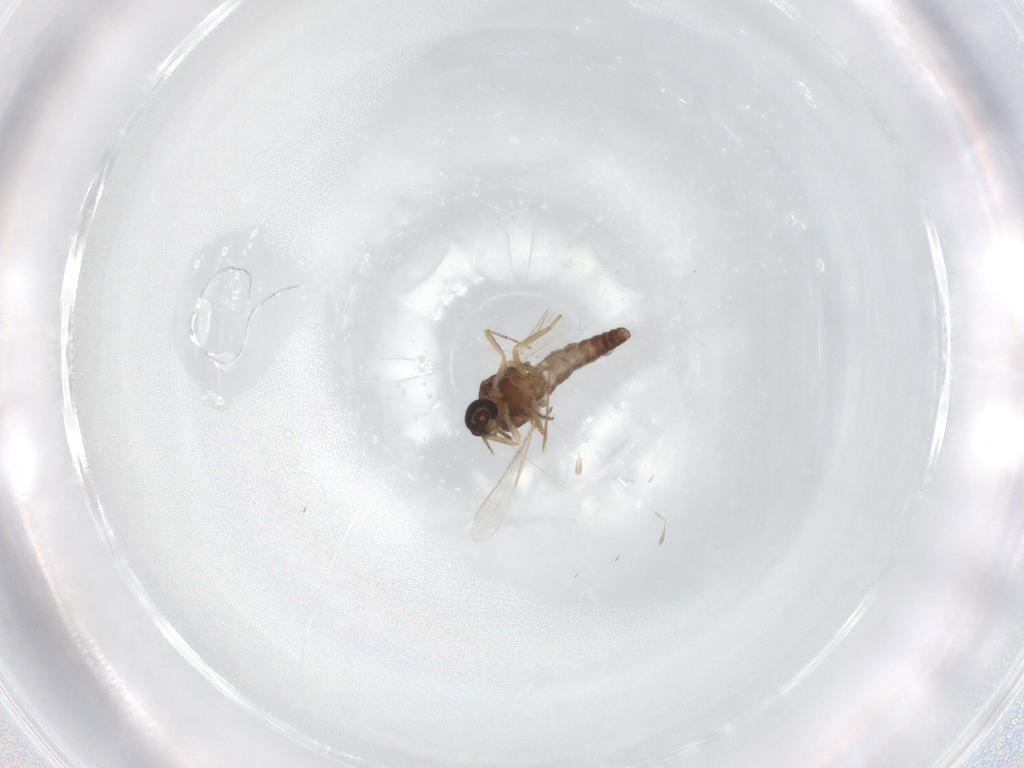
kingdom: Animalia
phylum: Arthropoda
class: Insecta
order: Diptera
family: Ceratopogonidae
